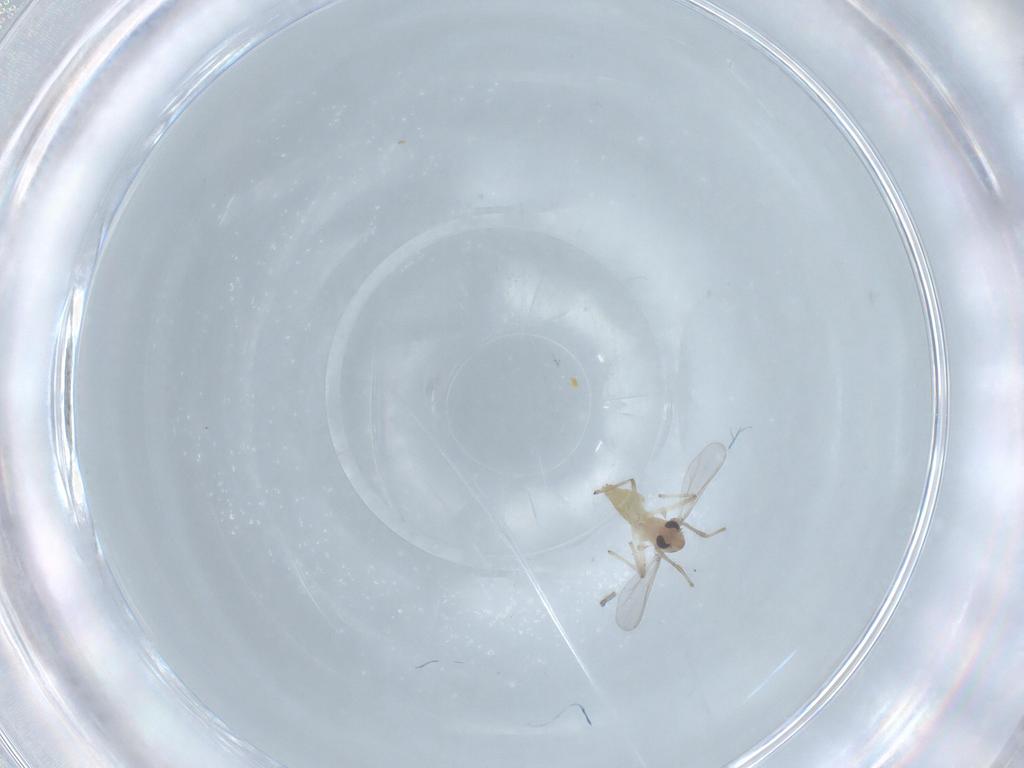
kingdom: Animalia
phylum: Arthropoda
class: Insecta
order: Diptera
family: Chironomidae
